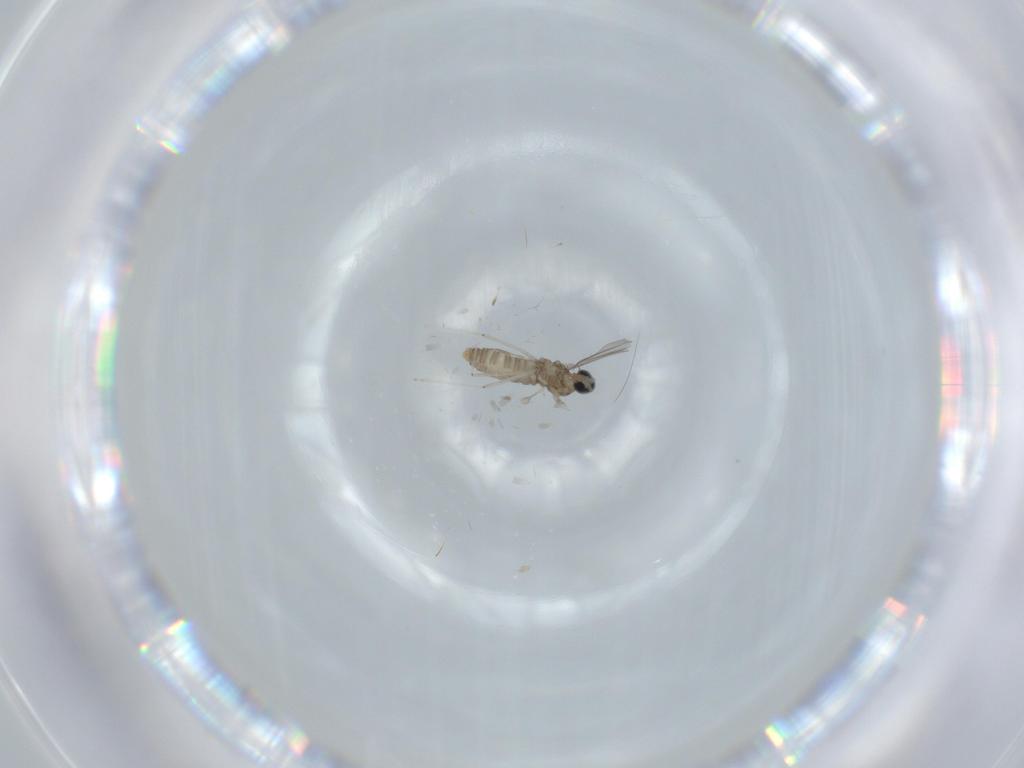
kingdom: Animalia
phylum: Arthropoda
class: Insecta
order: Diptera
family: Cecidomyiidae
